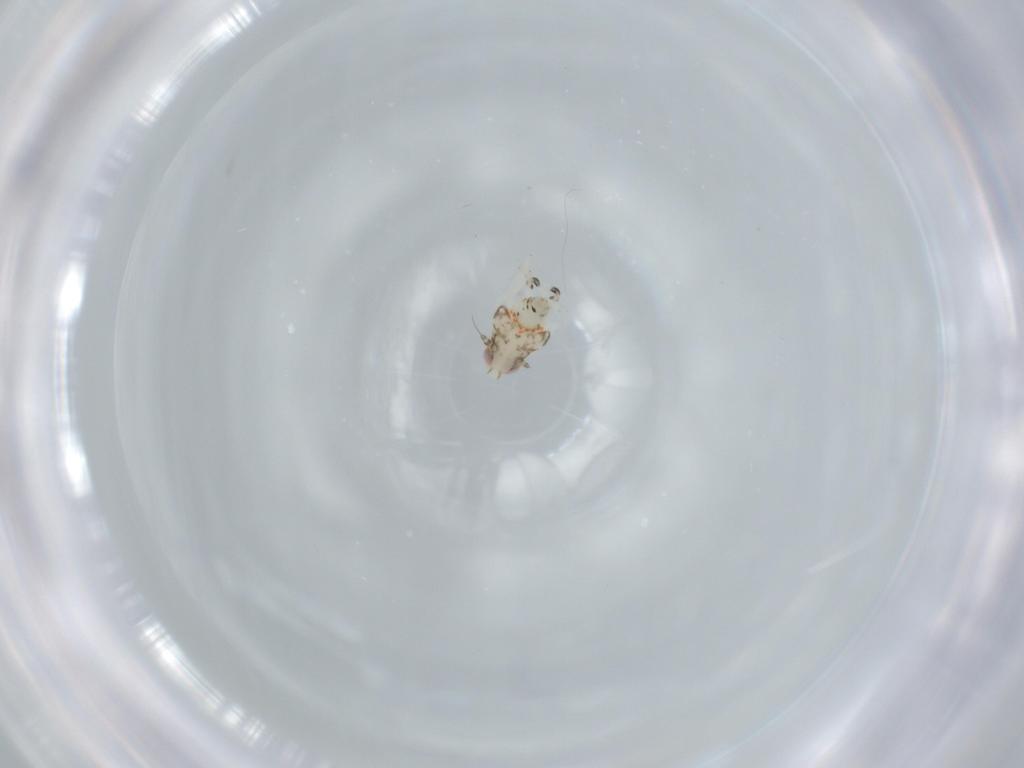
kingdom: Animalia
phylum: Arthropoda
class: Insecta
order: Hemiptera
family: Nogodinidae
